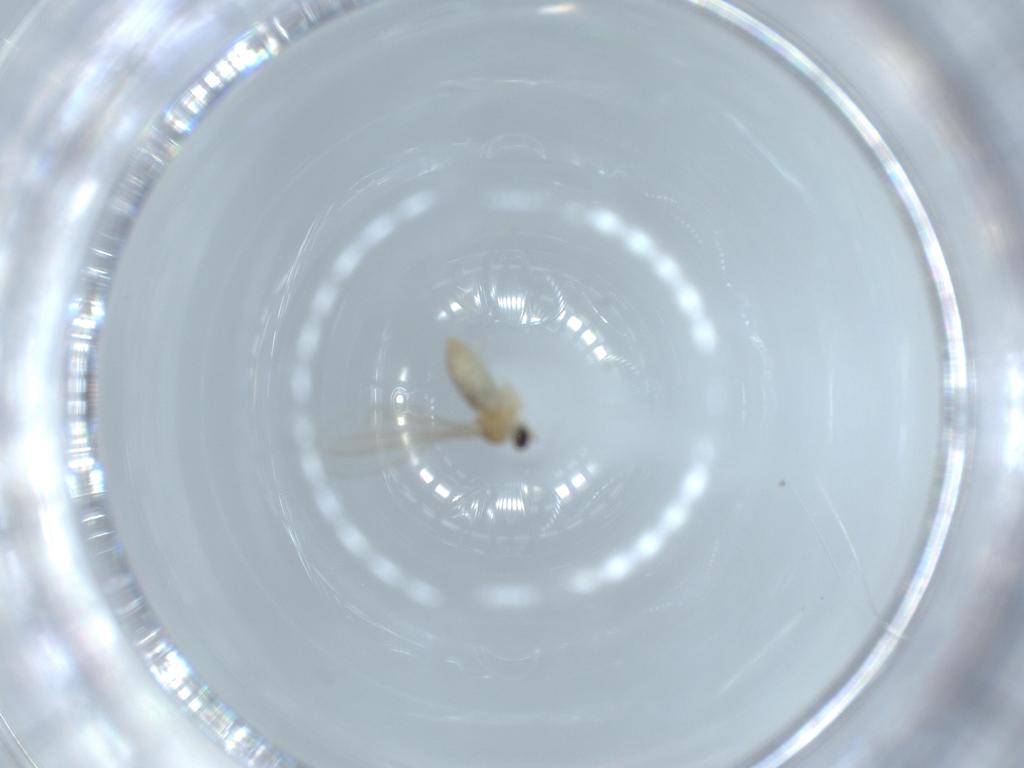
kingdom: Animalia
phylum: Arthropoda
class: Insecta
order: Diptera
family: Cecidomyiidae
